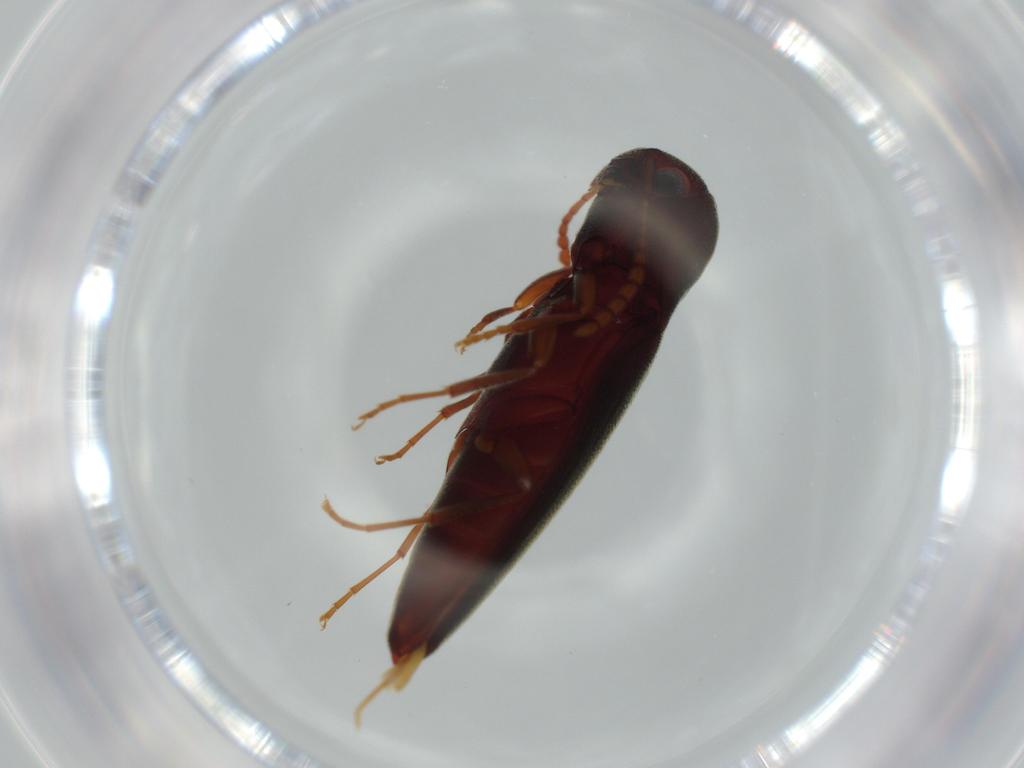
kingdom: Animalia
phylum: Arthropoda
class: Insecta
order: Coleoptera
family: Eucnemidae
